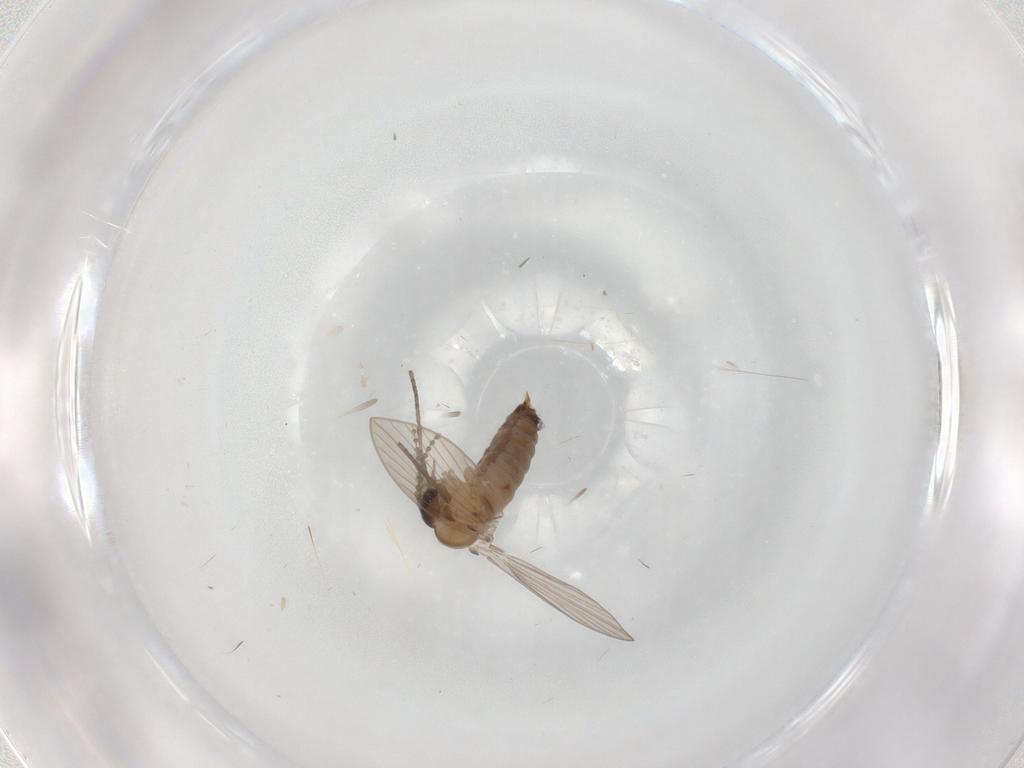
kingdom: Animalia
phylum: Arthropoda
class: Insecta
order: Diptera
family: Psychodidae
